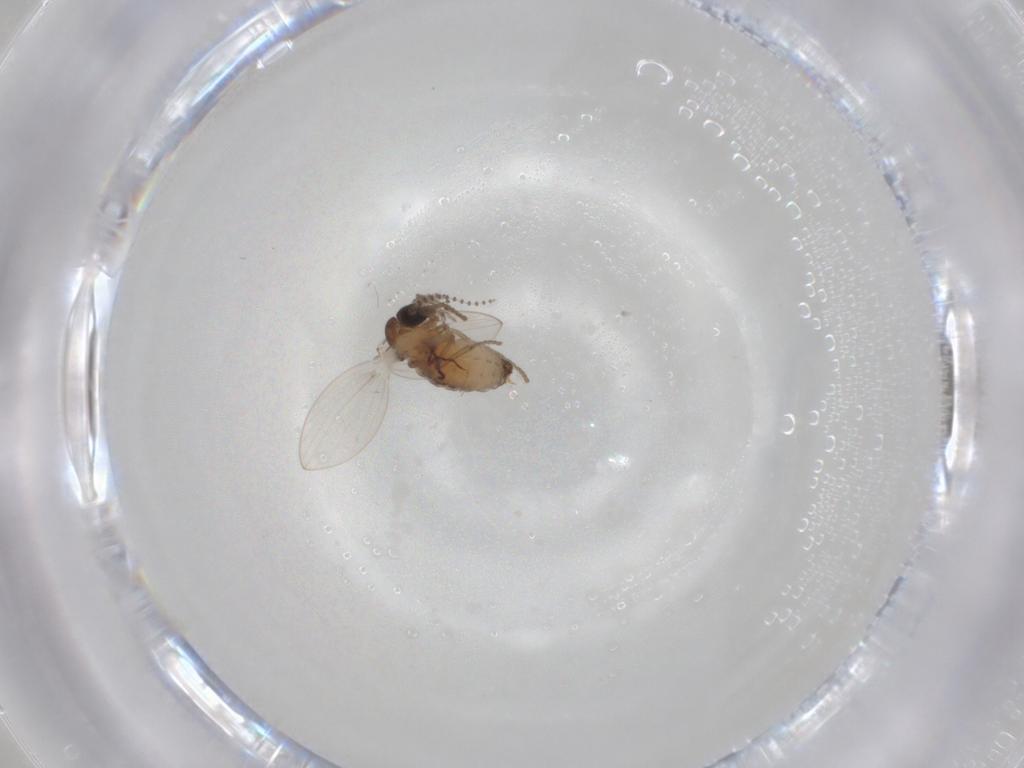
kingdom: Animalia
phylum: Arthropoda
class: Insecta
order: Diptera
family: Psychodidae
